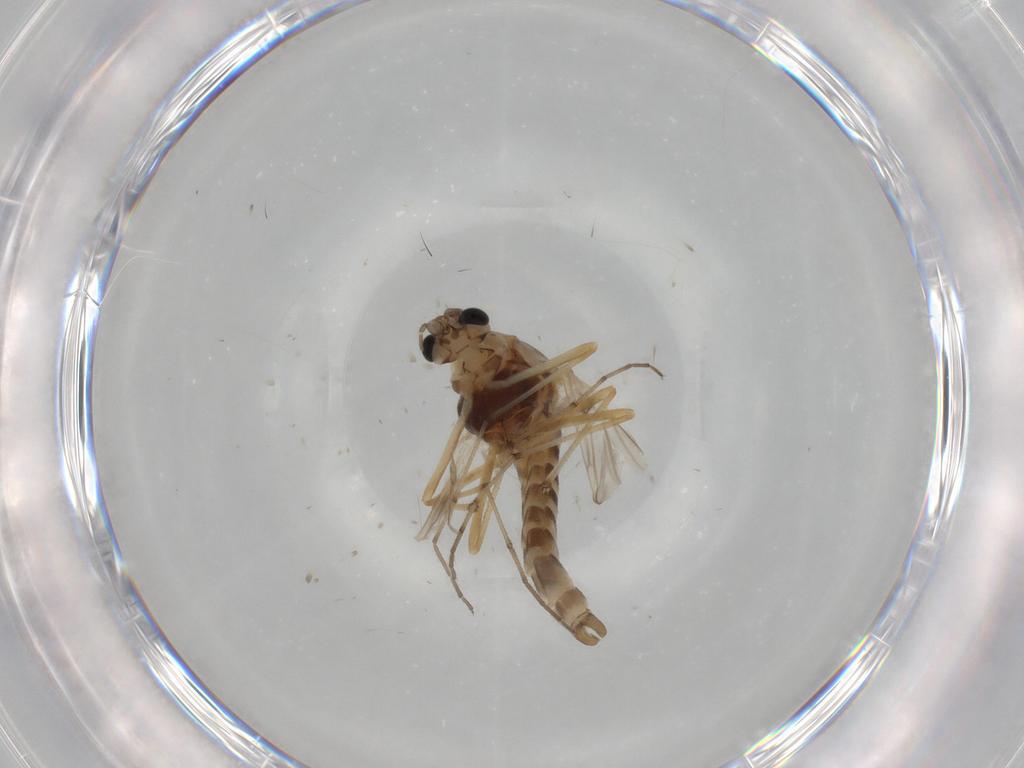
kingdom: Animalia
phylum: Arthropoda
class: Insecta
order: Diptera
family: Chironomidae
